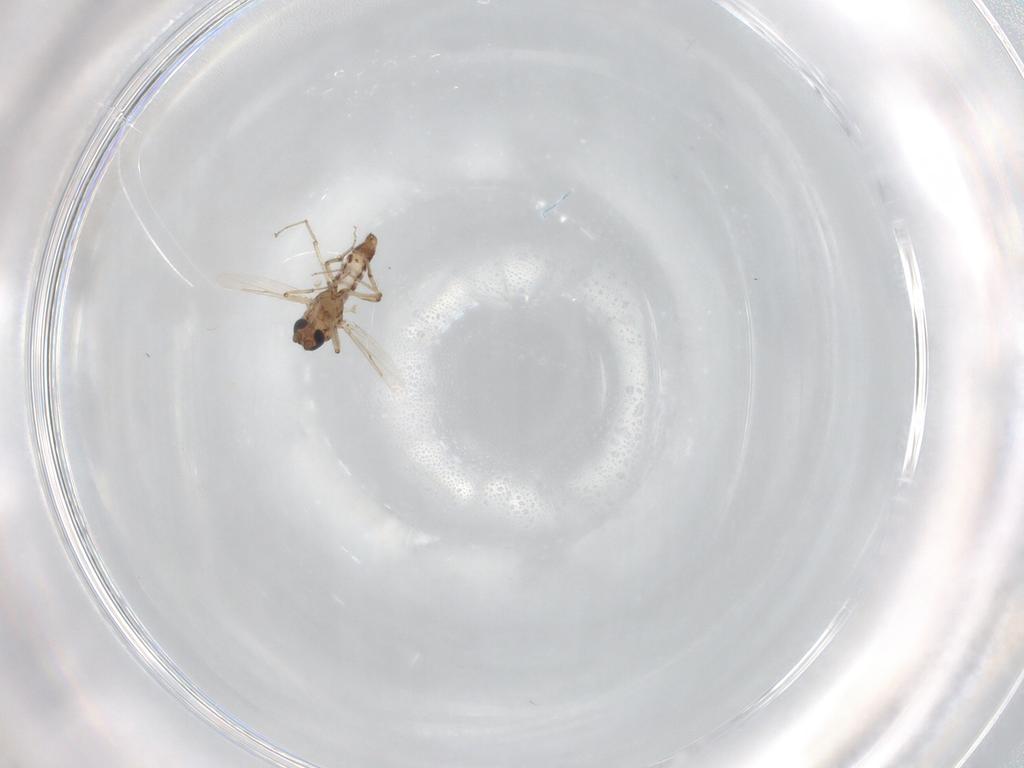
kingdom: Animalia
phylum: Arthropoda
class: Insecta
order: Diptera
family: Ceratopogonidae
